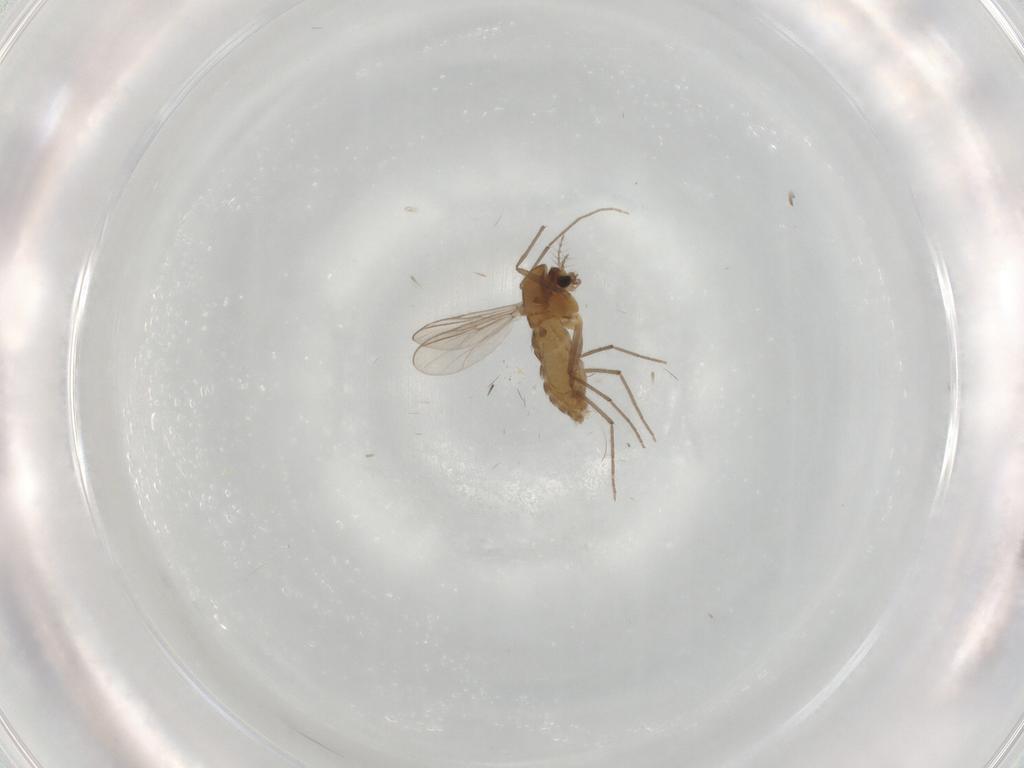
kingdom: Animalia
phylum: Arthropoda
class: Insecta
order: Diptera
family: Chironomidae
